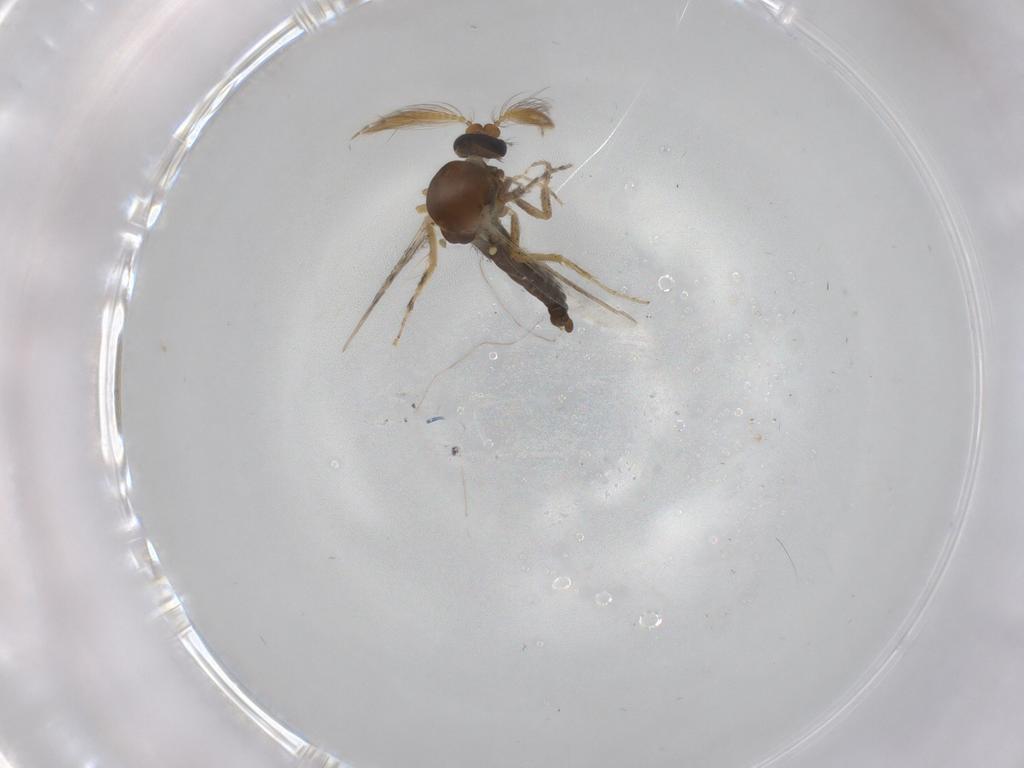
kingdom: Animalia
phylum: Arthropoda
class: Insecta
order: Diptera
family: Ceratopogonidae
